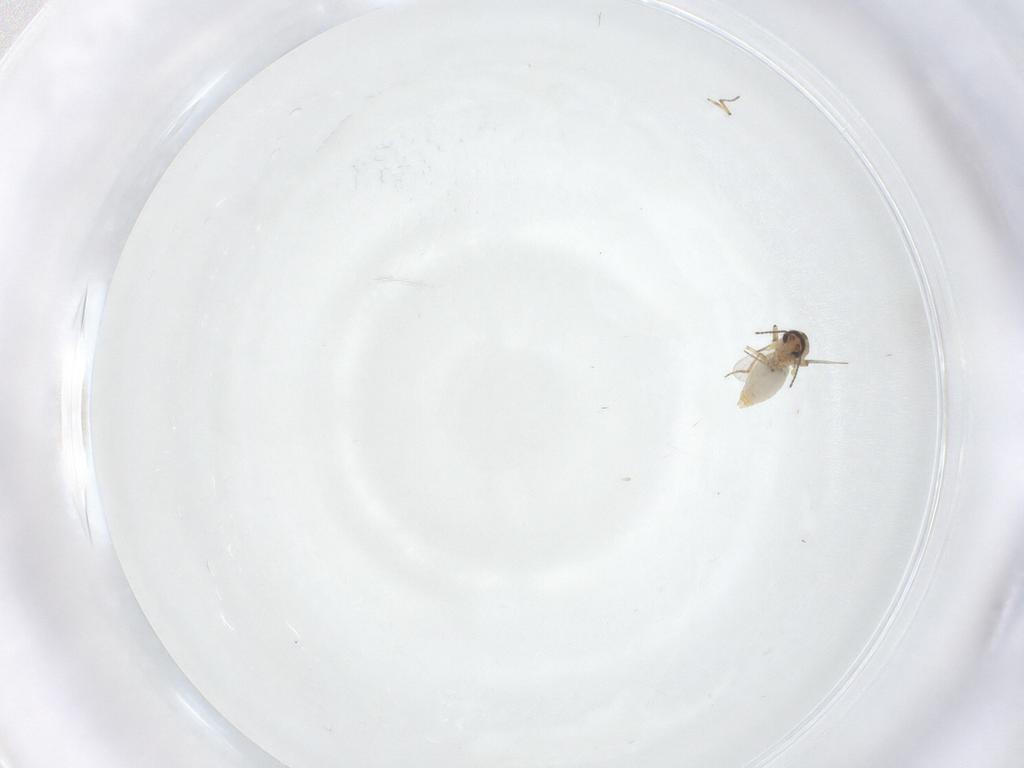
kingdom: Animalia
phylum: Arthropoda
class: Insecta
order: Diptera
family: Ceratopogonidae
